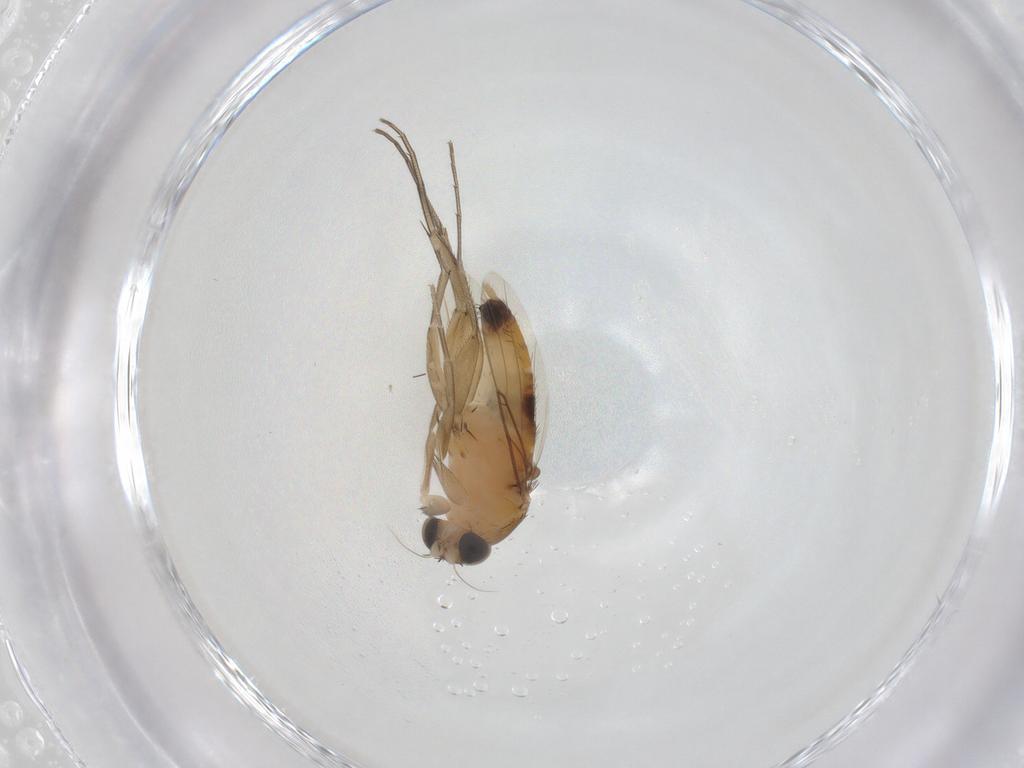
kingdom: Animalia
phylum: Arthropoda
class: Insecta
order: Diptera
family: Phoridae
